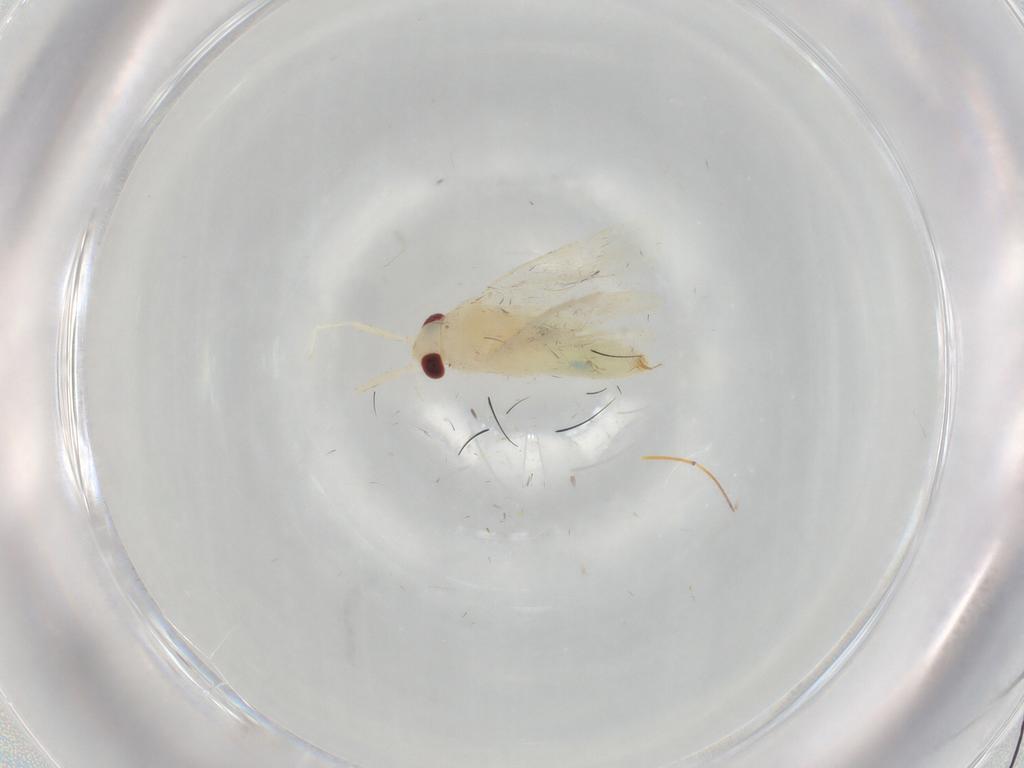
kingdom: Animalia
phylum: Arthropoda
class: Insecta
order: Hemiptera
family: Miridae
